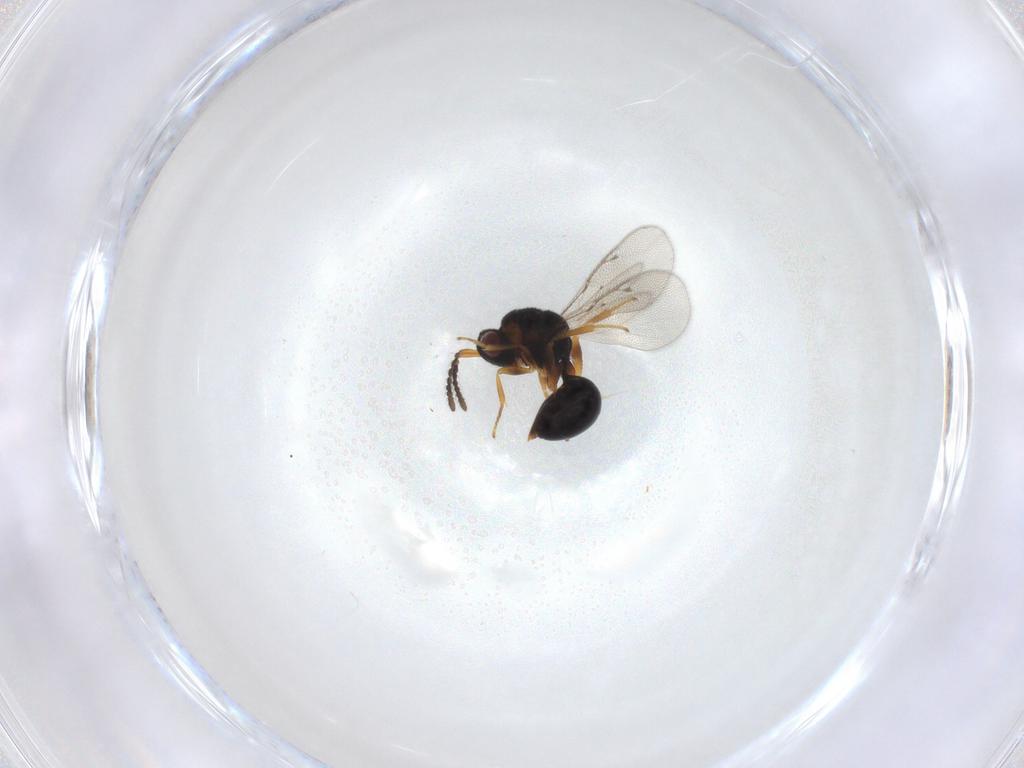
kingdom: Animalia
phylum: Arthropoda
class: Insecta
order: Hymenoptera
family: Eurytomidae
